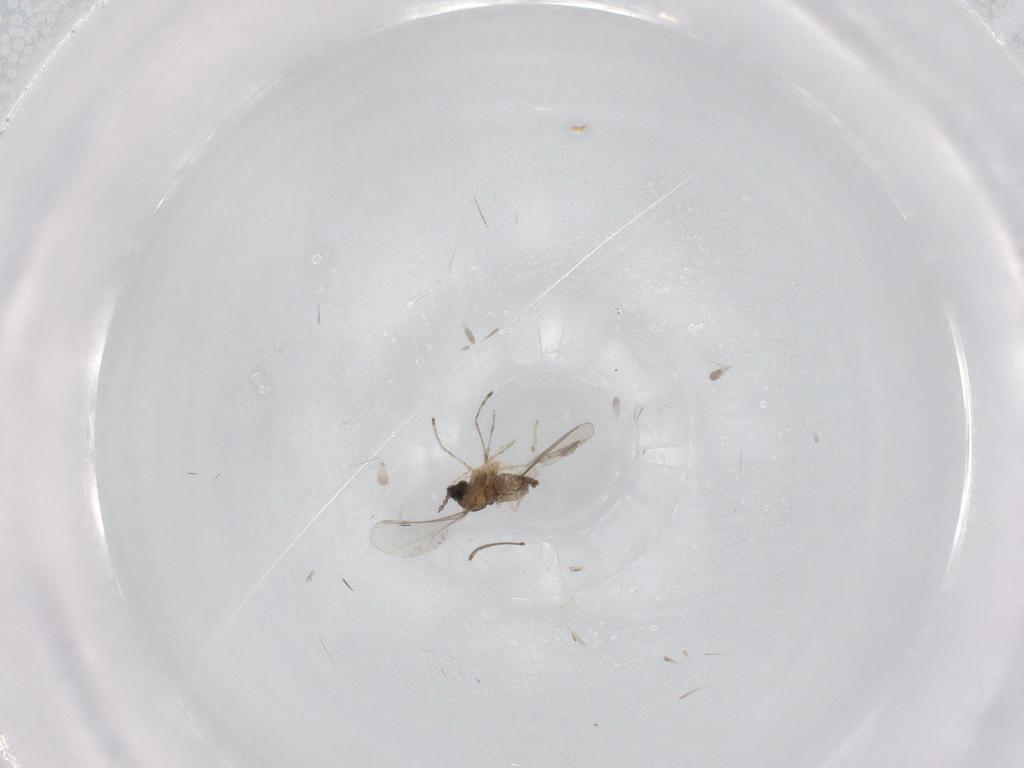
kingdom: Animalia
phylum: Arthropoda
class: Insecta
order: Diptera
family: Cecidomyiidae
